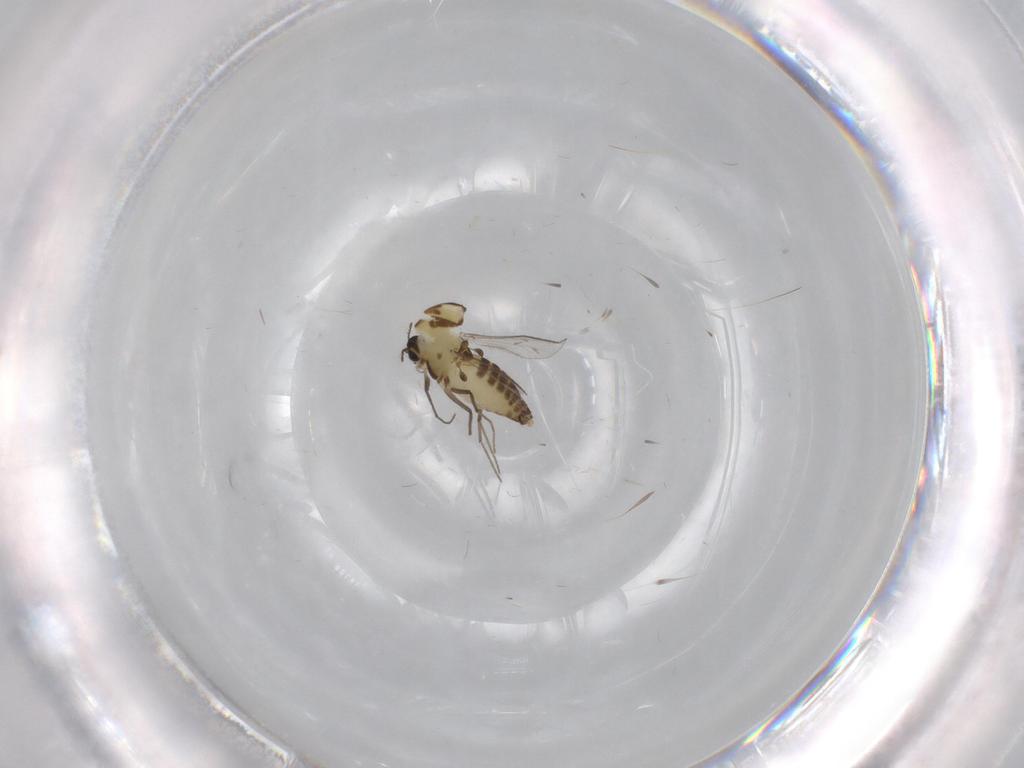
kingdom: Animalia
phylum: Arthropoda
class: Insecta
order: Diptera
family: Chironomidae
